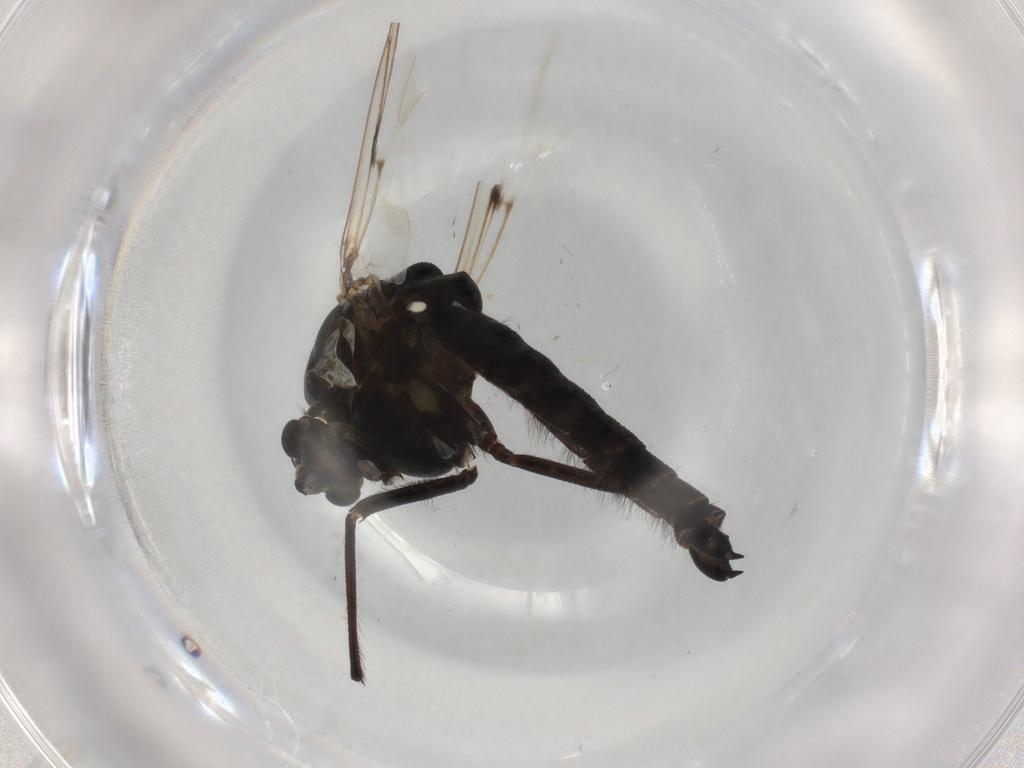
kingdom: Animalia
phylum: Arthropoda
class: Insecta
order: Diptera
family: Chironomidae
